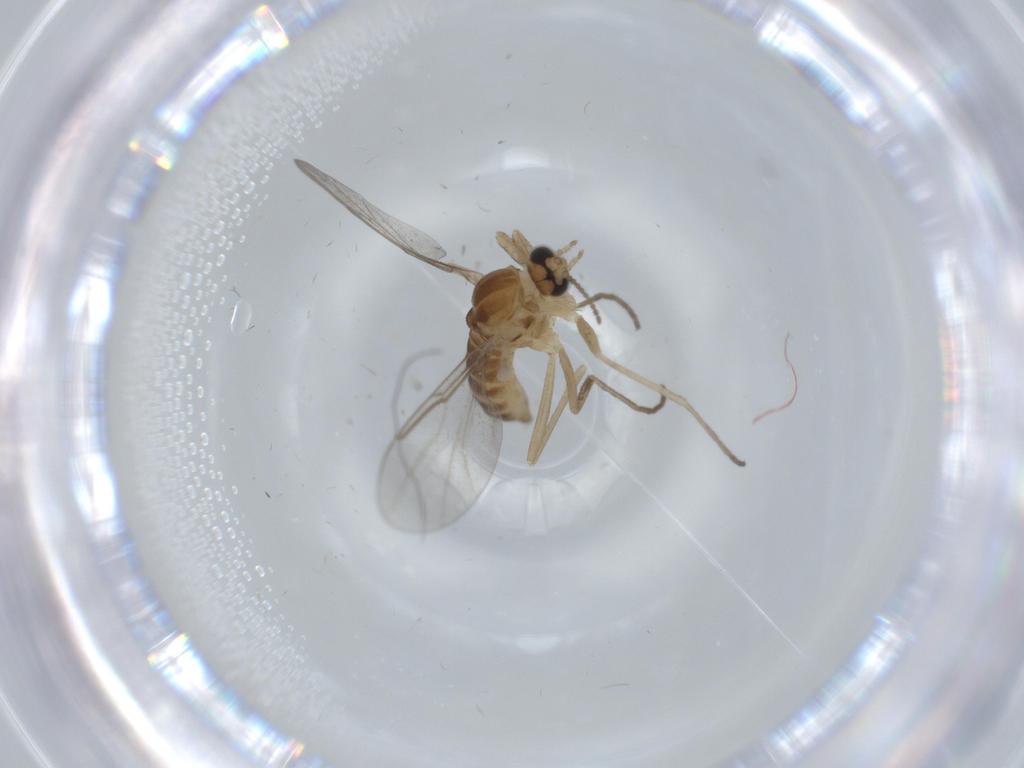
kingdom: Animalia
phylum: Arthropoda
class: Insecta
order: Diptera
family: Cecidomyiidae
